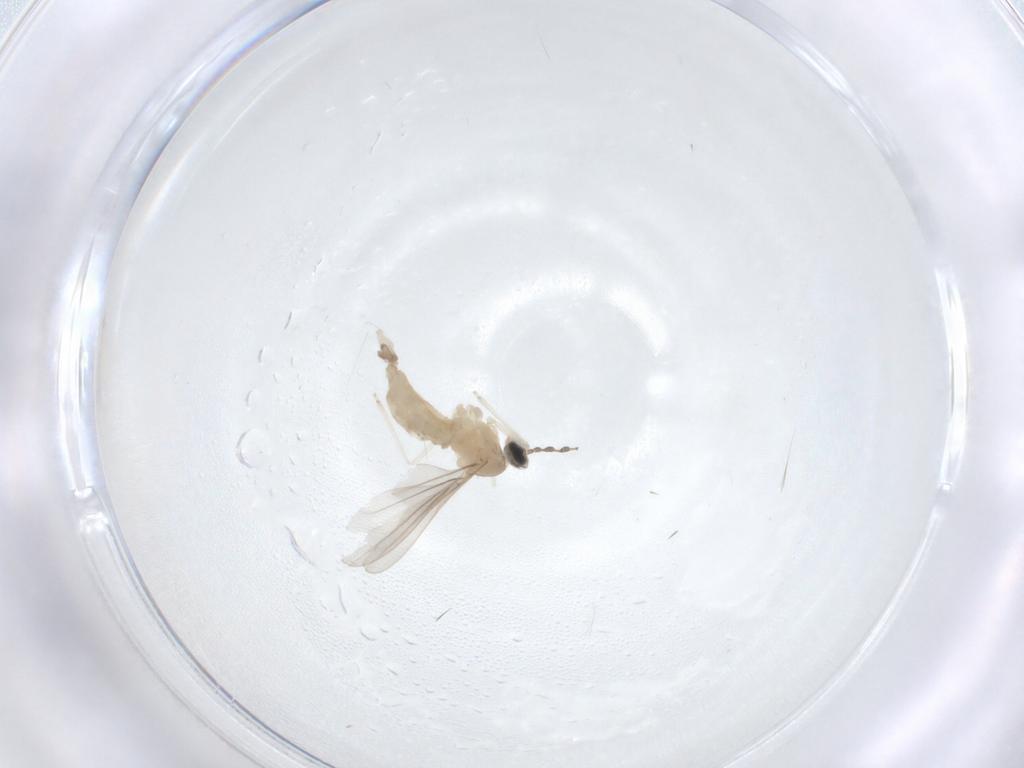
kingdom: Animalia
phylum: Arthropoda
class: Insecta
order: Diptera
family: Cecidomyiidae
